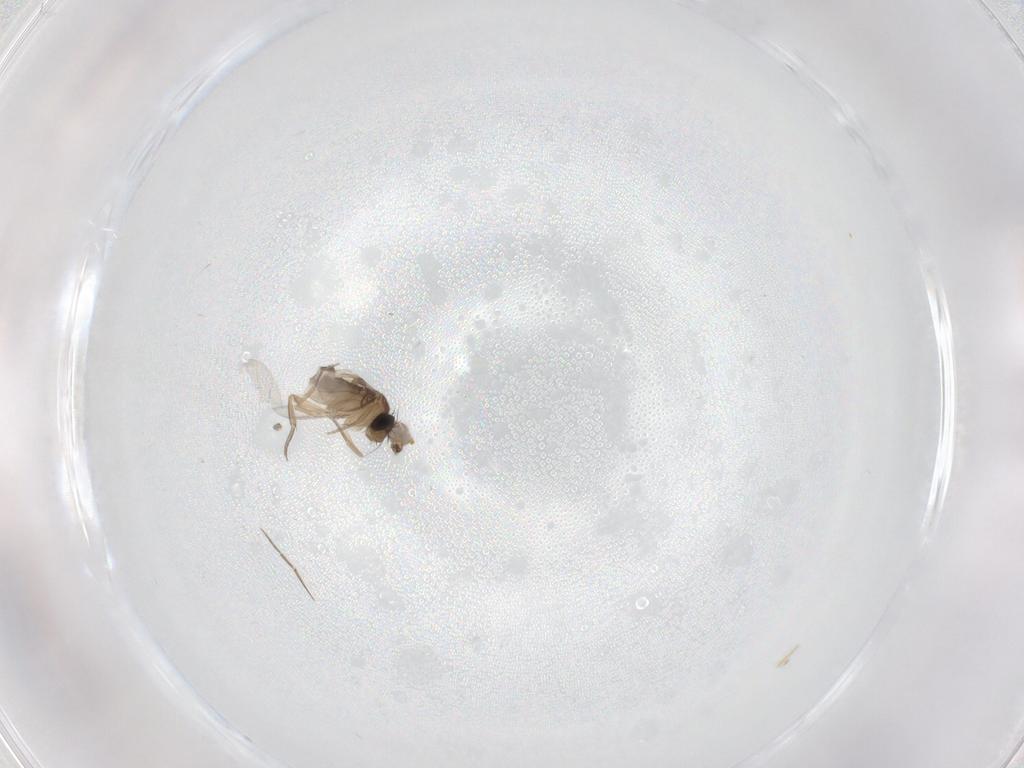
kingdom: Animalia
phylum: Arthropoda
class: Insecta
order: Diptera
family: Phoridae
